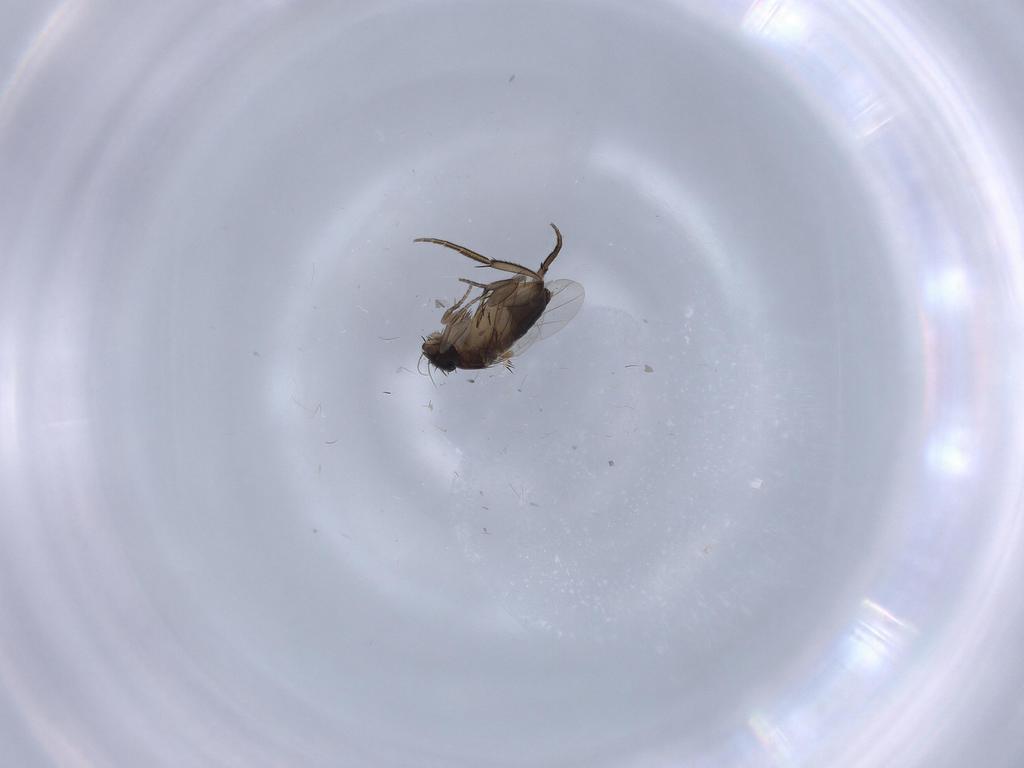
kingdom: Animalia
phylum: Arthropoda
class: Insecta
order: Diptera
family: Phoridae
